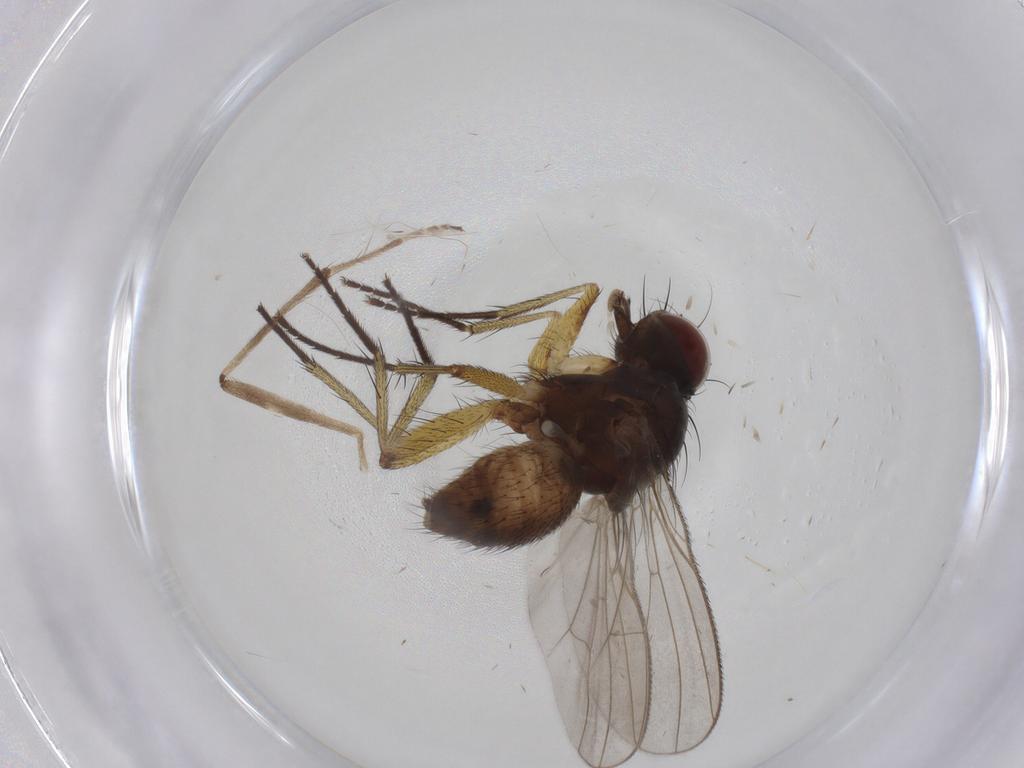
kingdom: Animalia
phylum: Arthropoda
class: Insecta
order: Diptera
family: Muscidae
